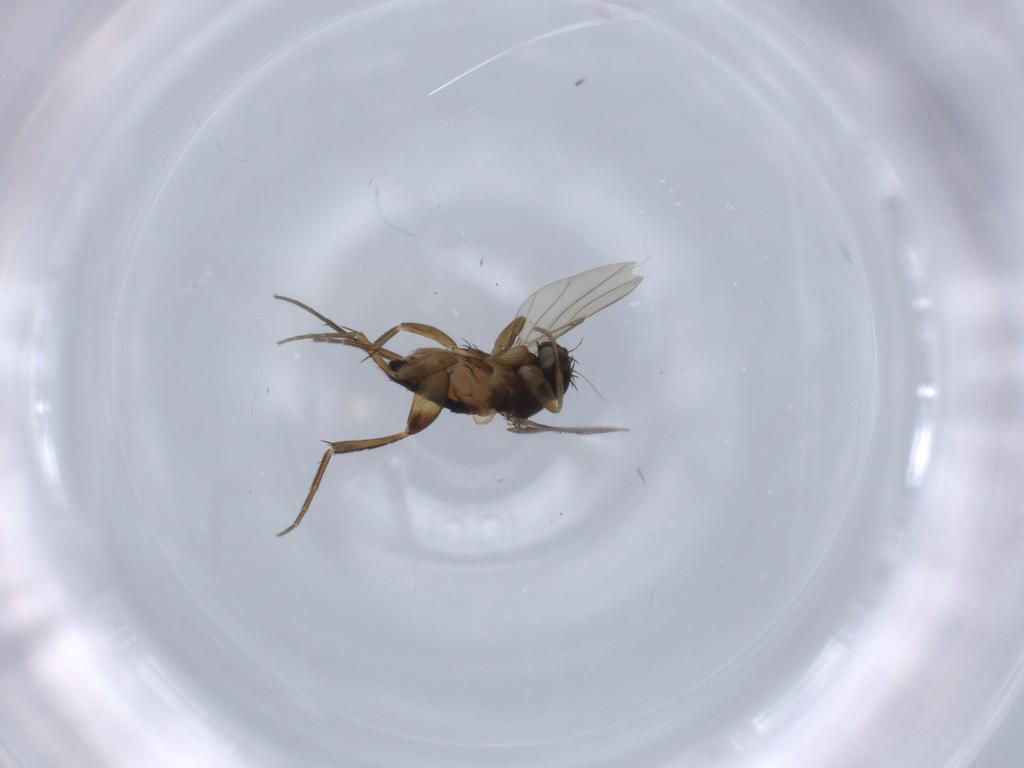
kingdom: Animalia
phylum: Arthropoda
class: Insecta
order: Diptera
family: Phoridae
